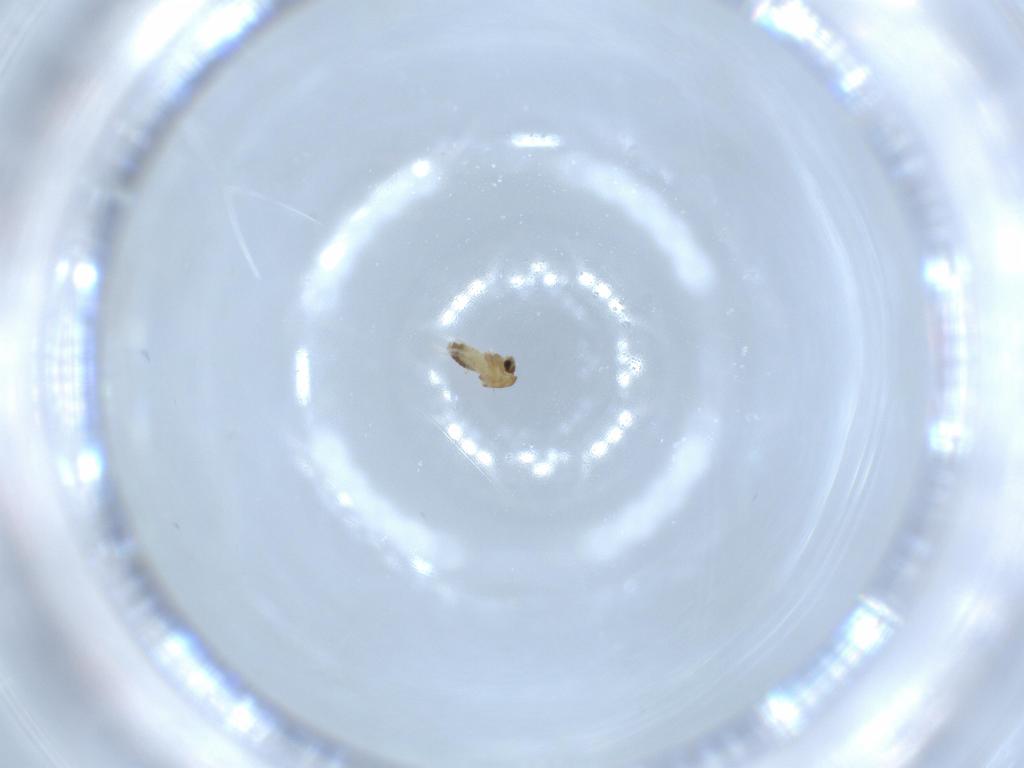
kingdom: Animalia
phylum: Arthropoda
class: Insecta
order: Diptera
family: Chironomidae
